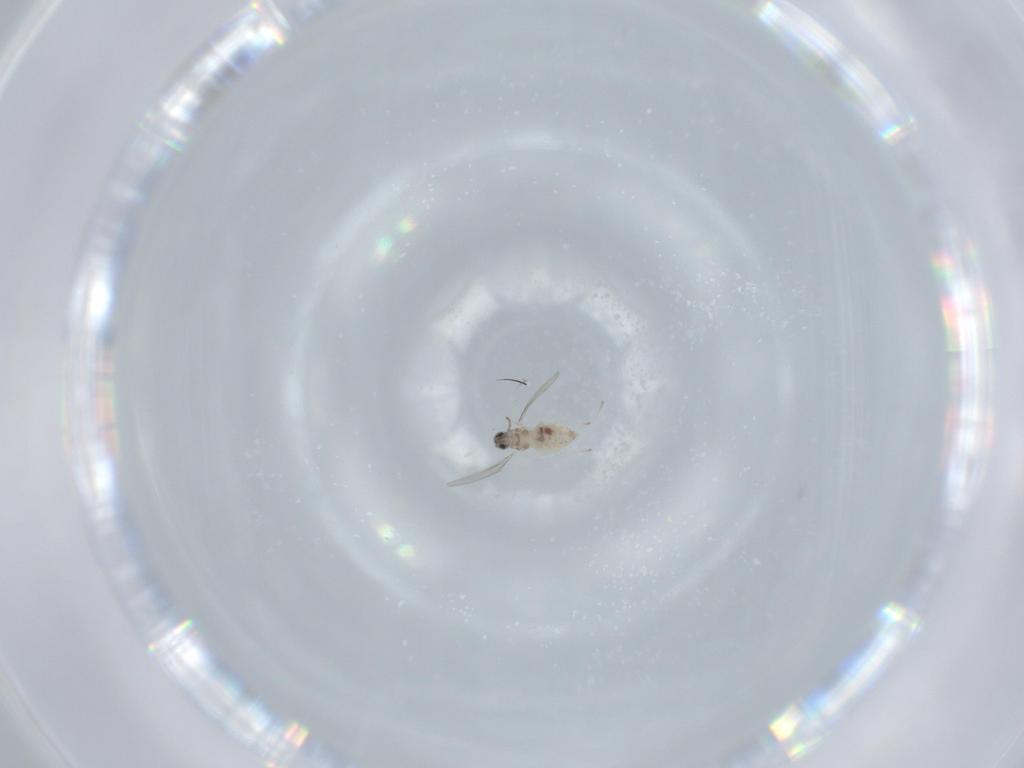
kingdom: Animalia
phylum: Arthropoda
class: Insecta
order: Diptera
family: Cecidomyiidae
